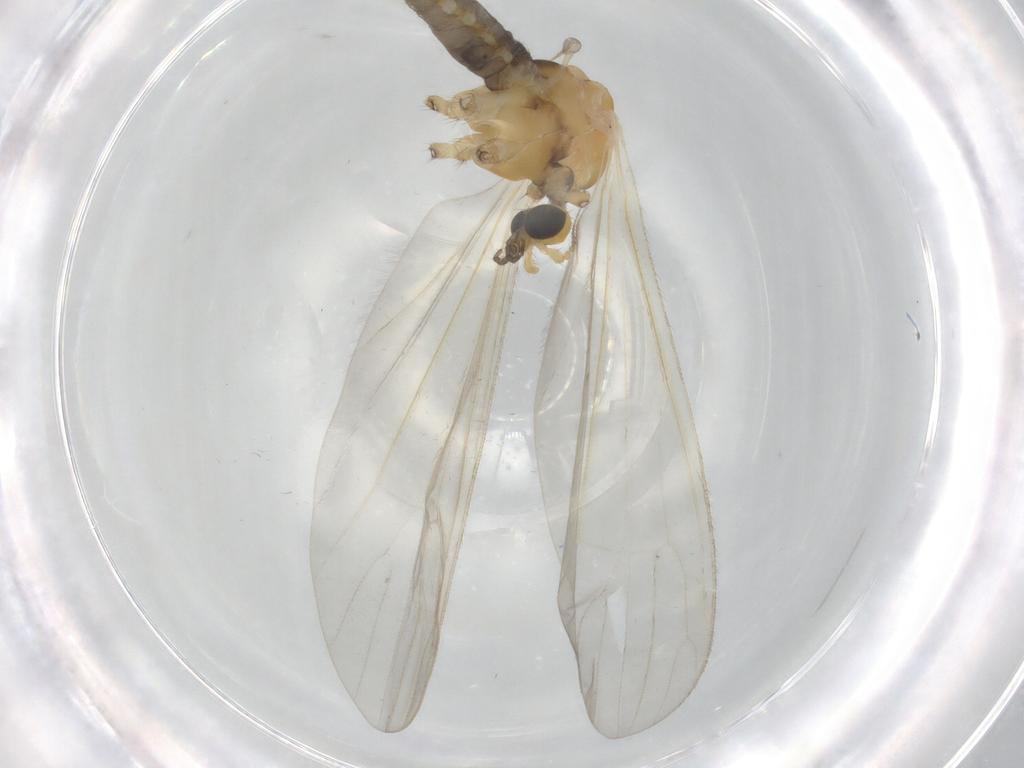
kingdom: Animalia
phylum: Arthropoda
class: Insecta
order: Diptera
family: Limoniidae
